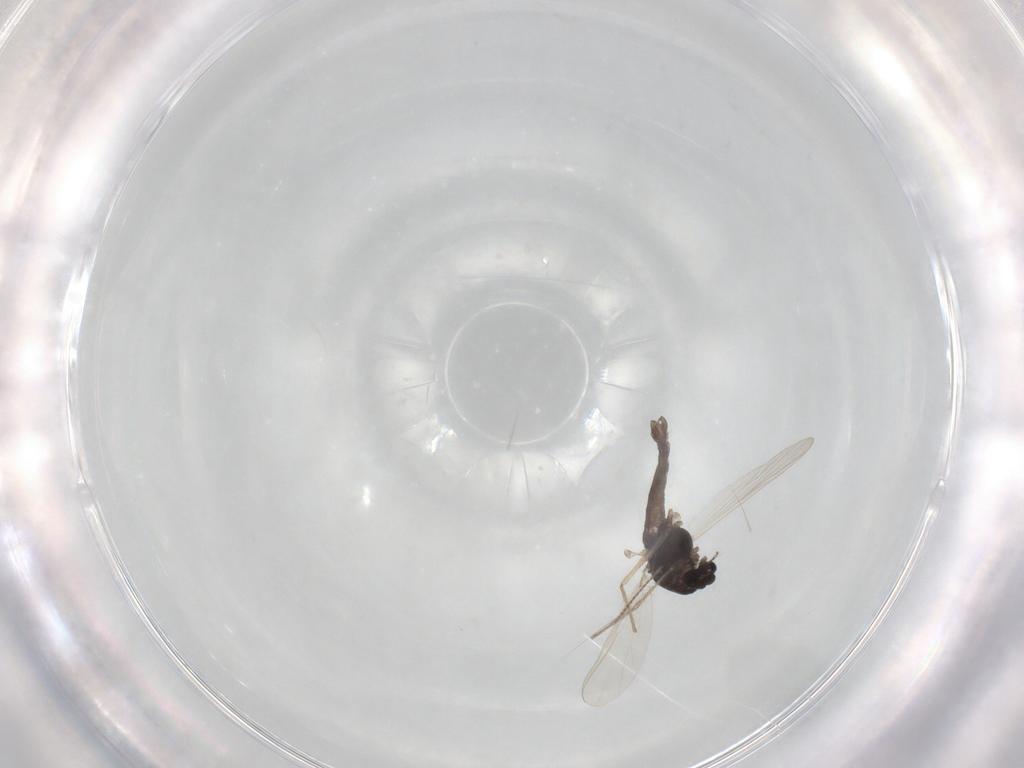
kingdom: Animalia
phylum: Arthropoda
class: Insecta
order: Diptera
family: Chironomidae
